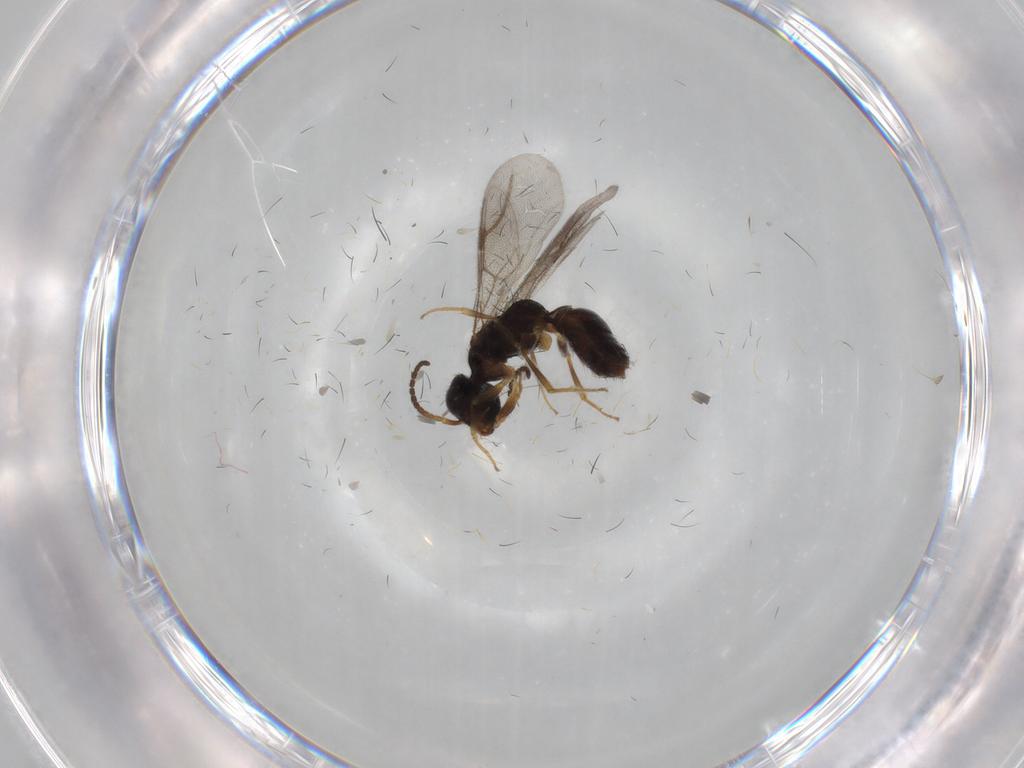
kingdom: Animalia
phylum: Arthropoda
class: Insecta
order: Hymenoptera
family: Bethylidae
